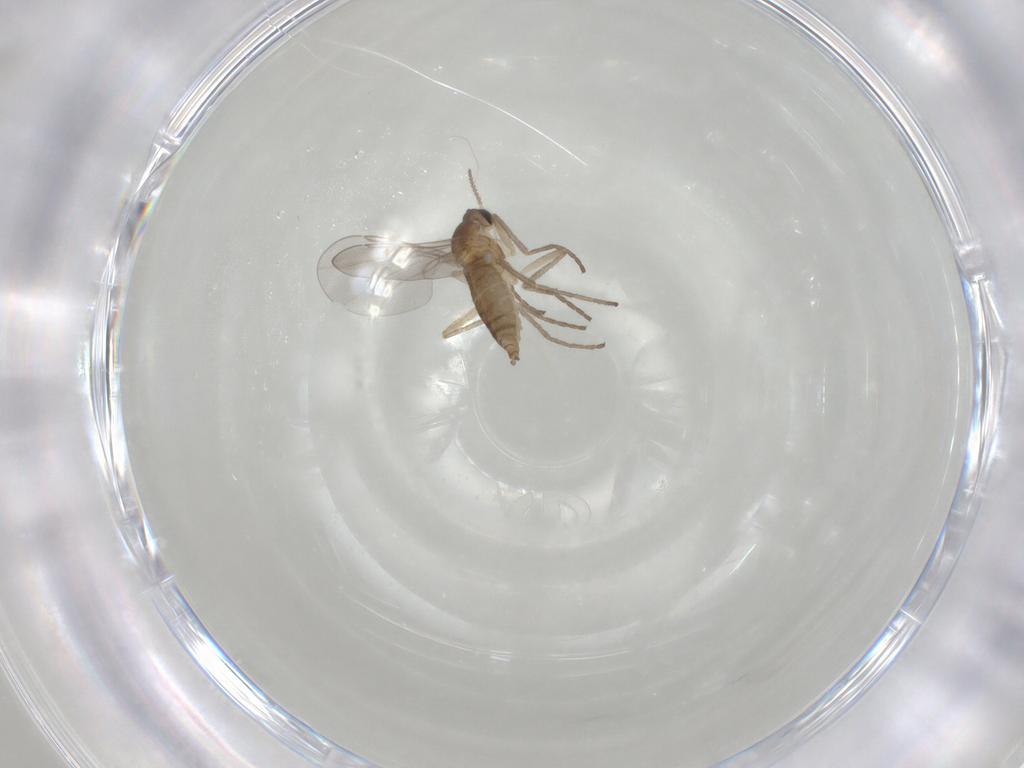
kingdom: Animalia
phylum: Arthropoda
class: Insecta
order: Diptera
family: Cecidomyiidae
